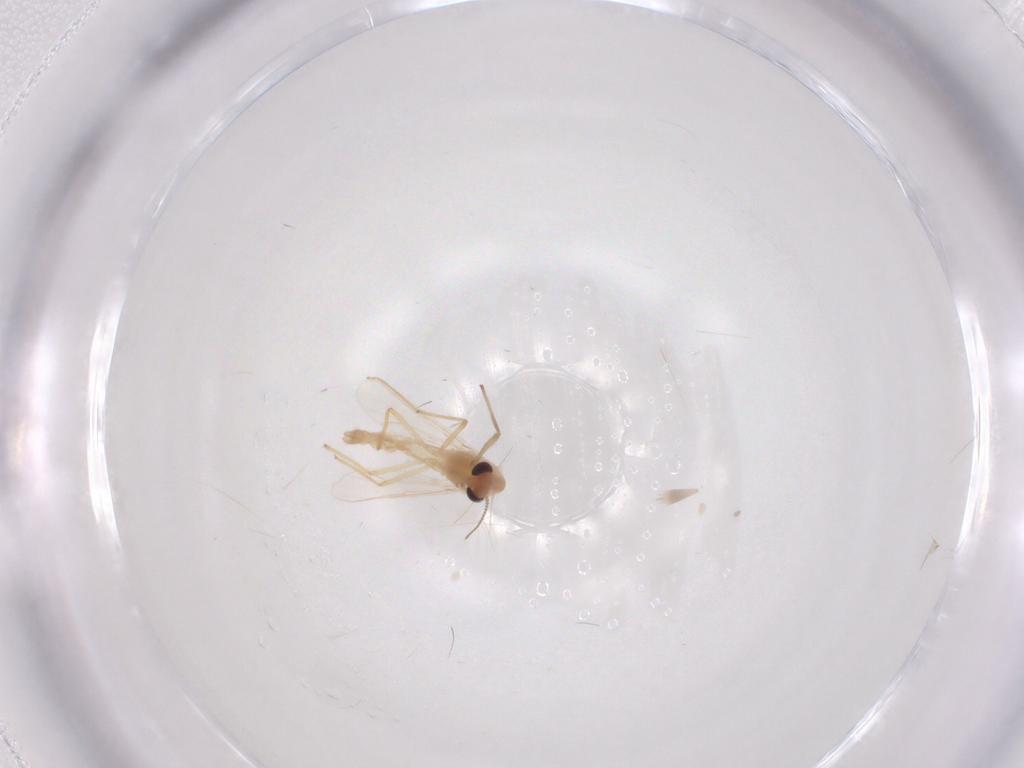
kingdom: Animalia
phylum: Arthropoda
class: Insecta
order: Diptera
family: Chironomidae
